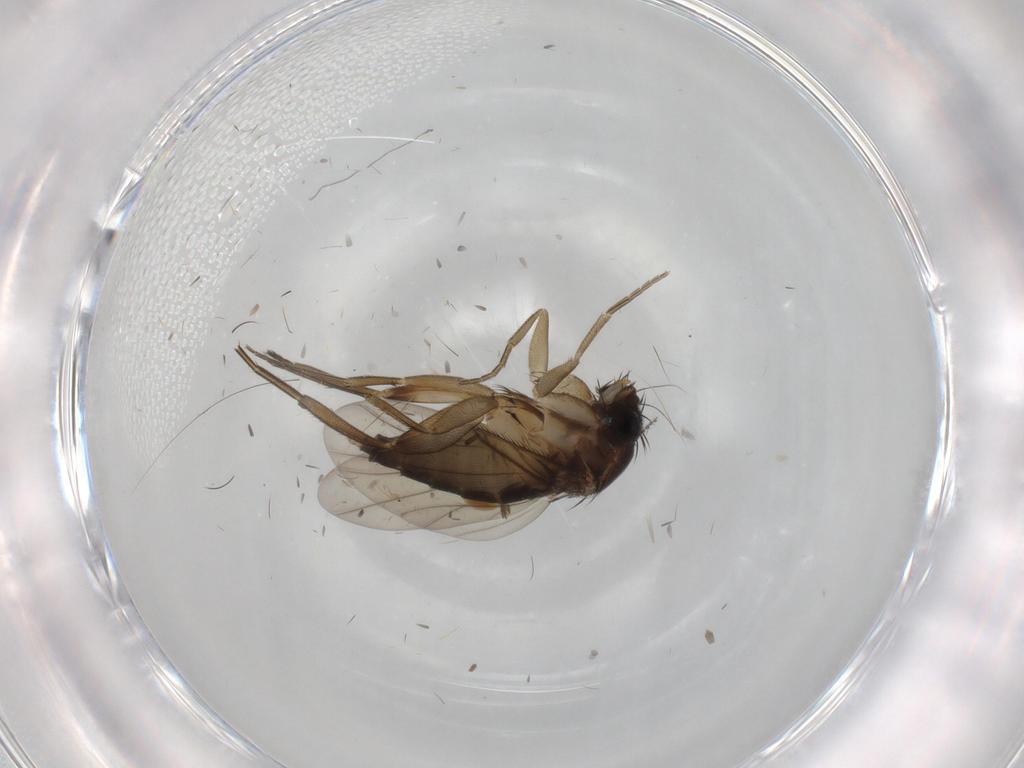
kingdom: Animalia
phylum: Arthropoda
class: Insecta
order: Diptera
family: Phoridae
